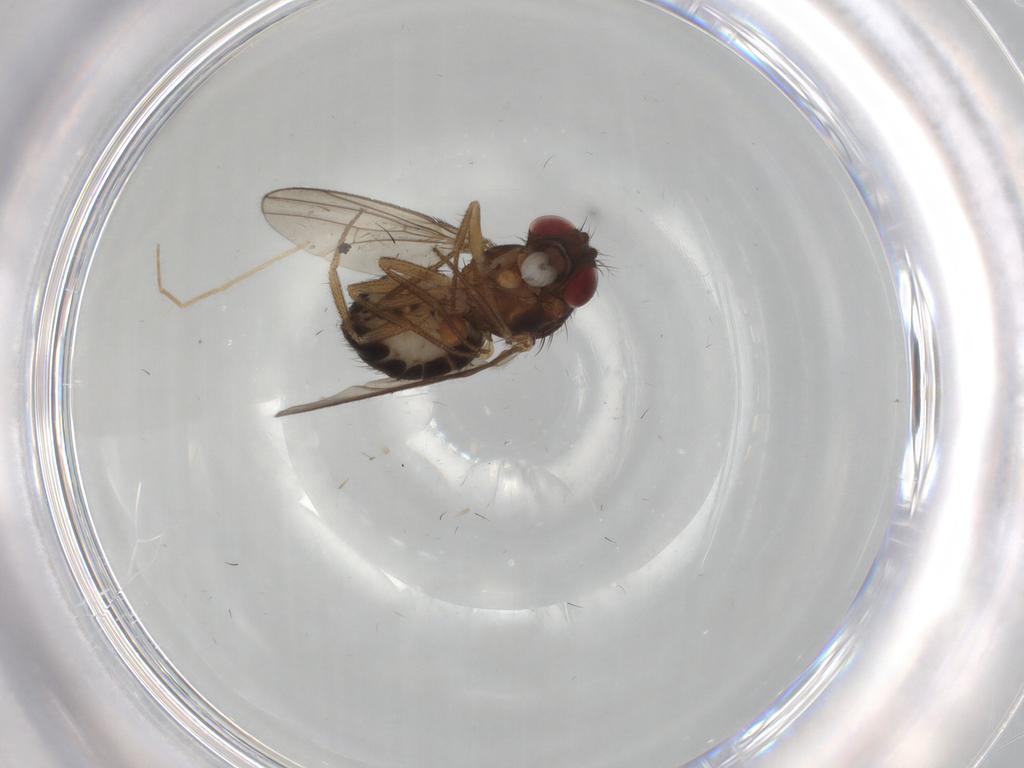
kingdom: Animalia
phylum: Arthropoda
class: Insecta
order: Diptera
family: Drosophilidae
